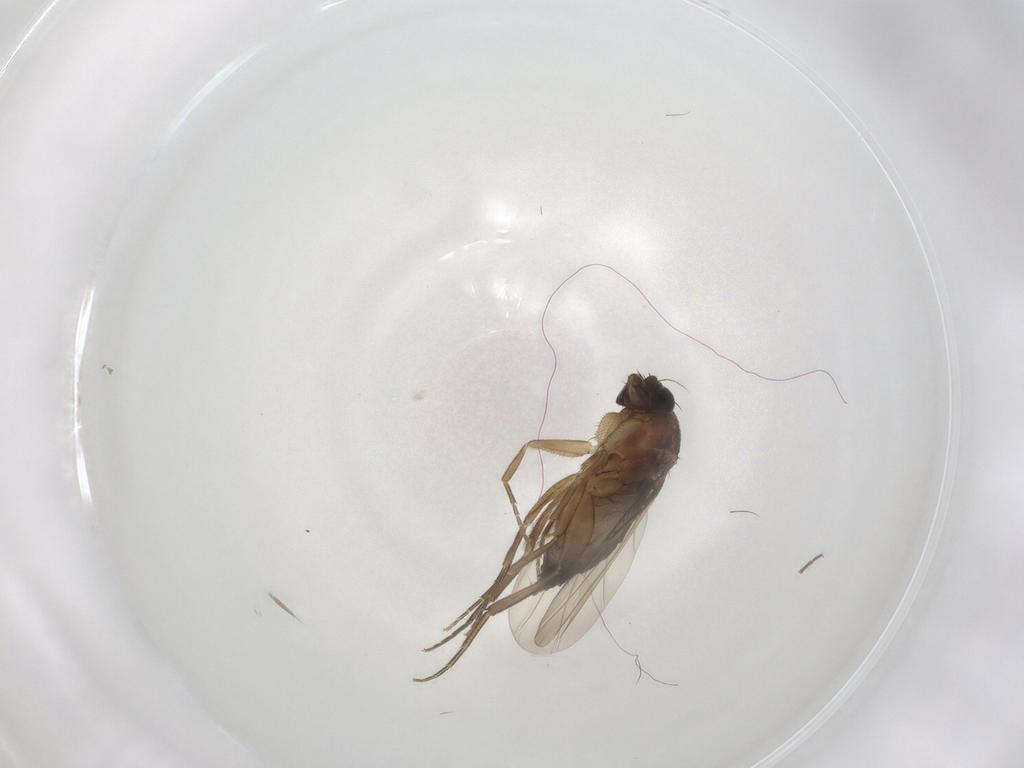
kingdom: Animalia
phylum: Arthropoda
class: Insecta
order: Diptera
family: Phoridae
